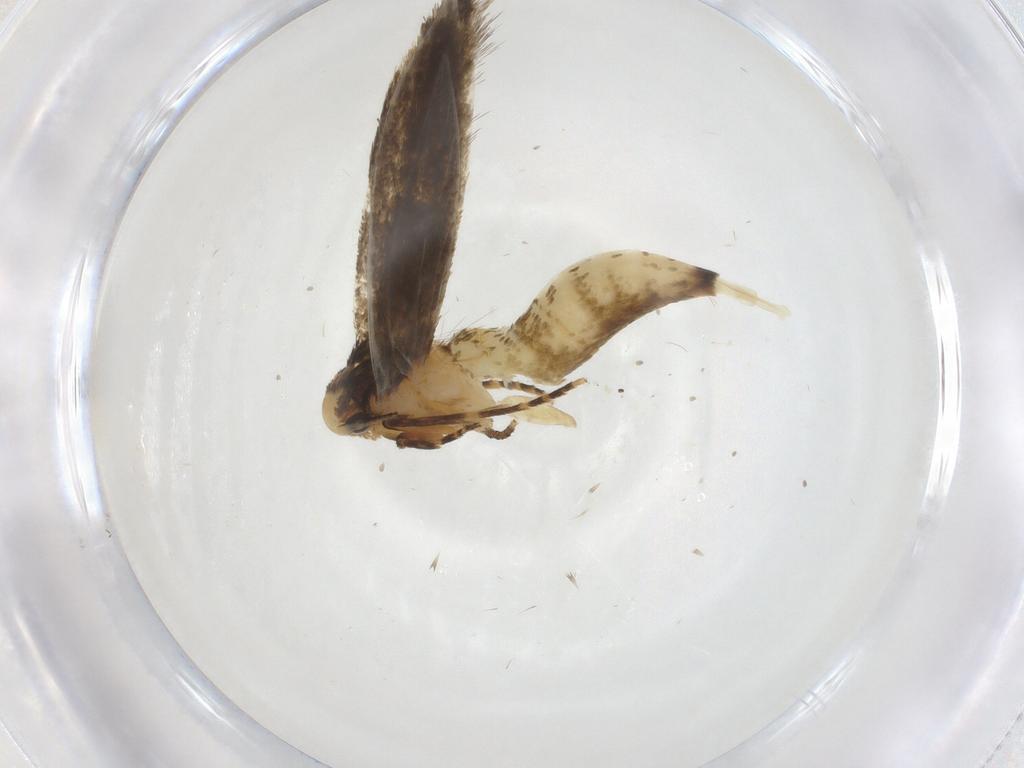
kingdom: Animalia
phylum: Arthropoda
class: Insecta
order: Lepidoptera
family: Tineidae
